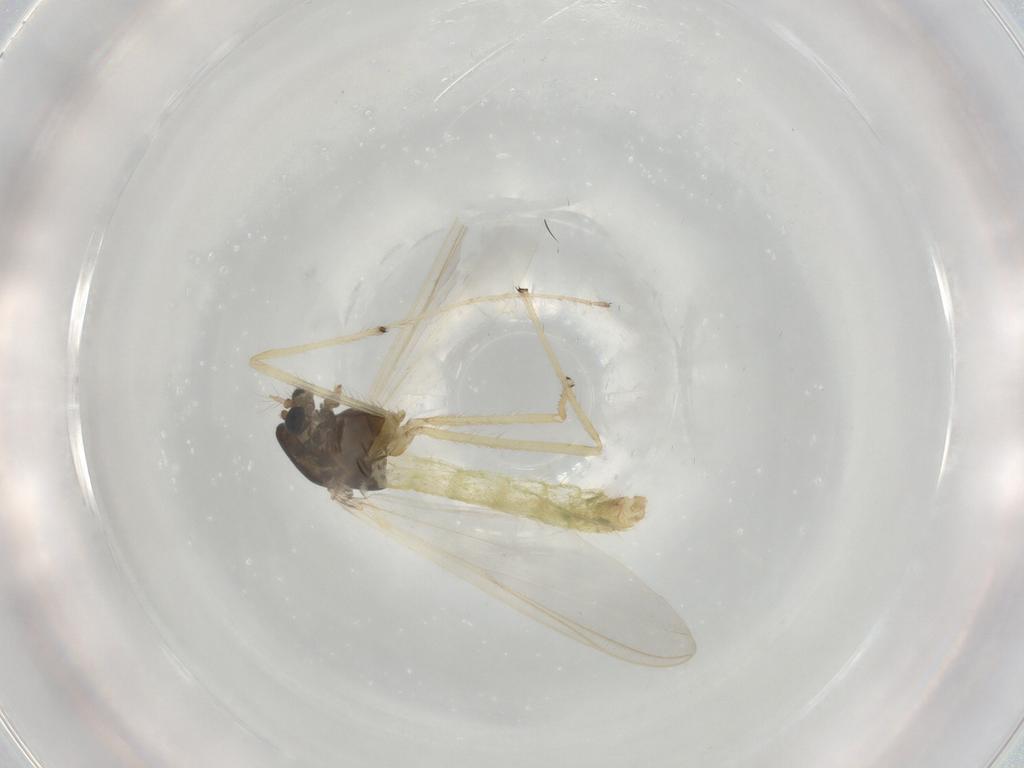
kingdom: Animalia
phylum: Arthropoda
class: Insecta
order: Diptera
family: Chironomidae
